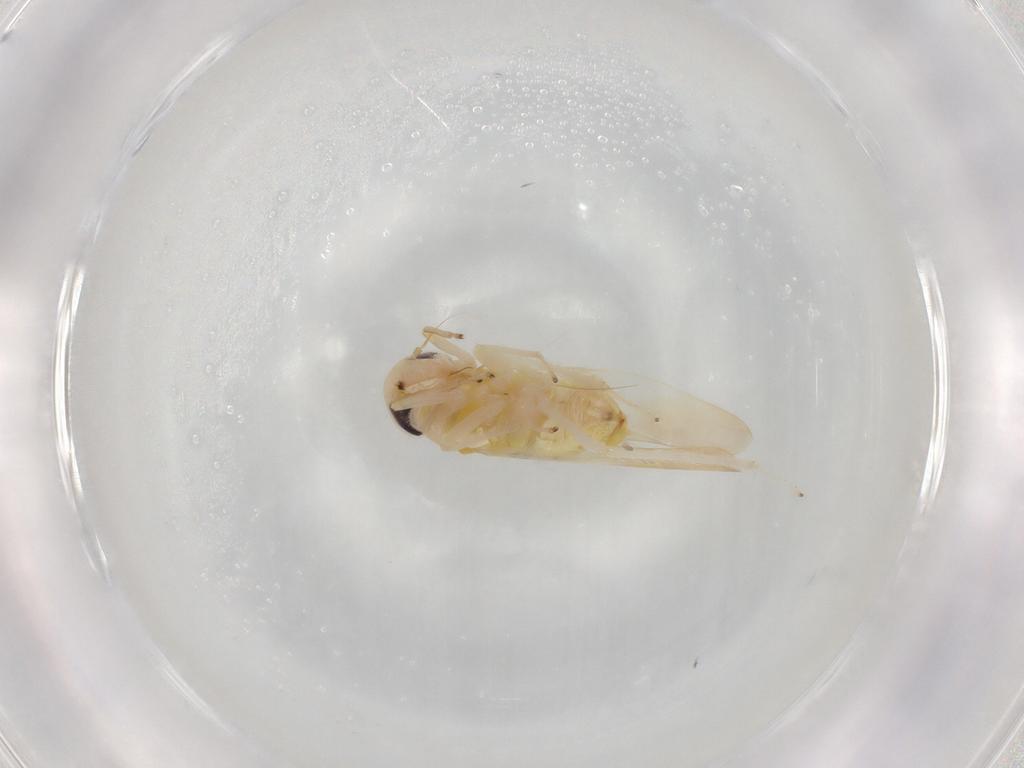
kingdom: Animalia
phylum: Arthropoda
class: Insecta
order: Hemiptera
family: Cicadellidae
